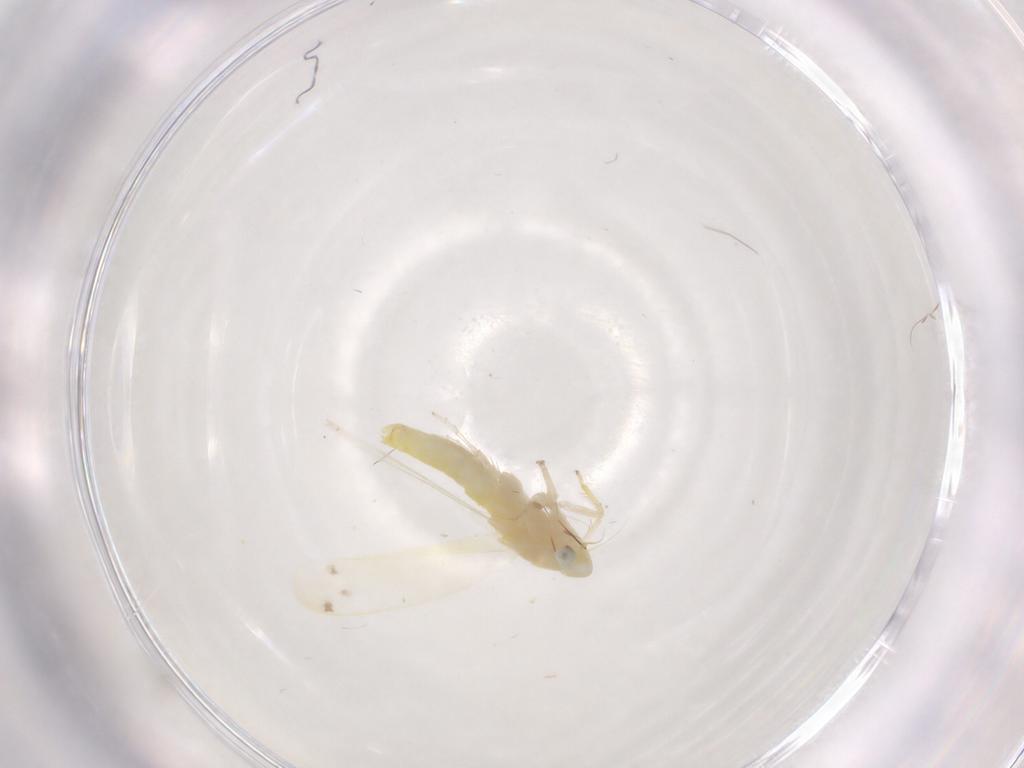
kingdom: Animalia
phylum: Arthropoda
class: Insecta
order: Hemiptera
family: Cicadellidae
